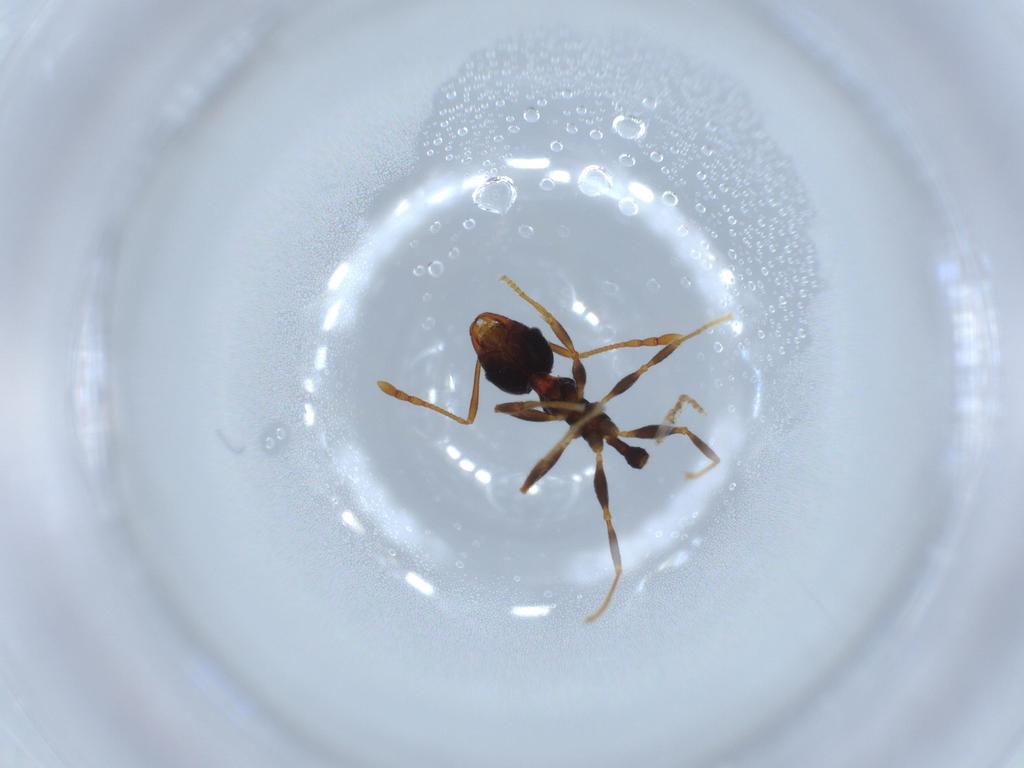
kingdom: Animalia
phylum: Arthropoda
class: Insecta
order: Hymenoptera
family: Formicidae
